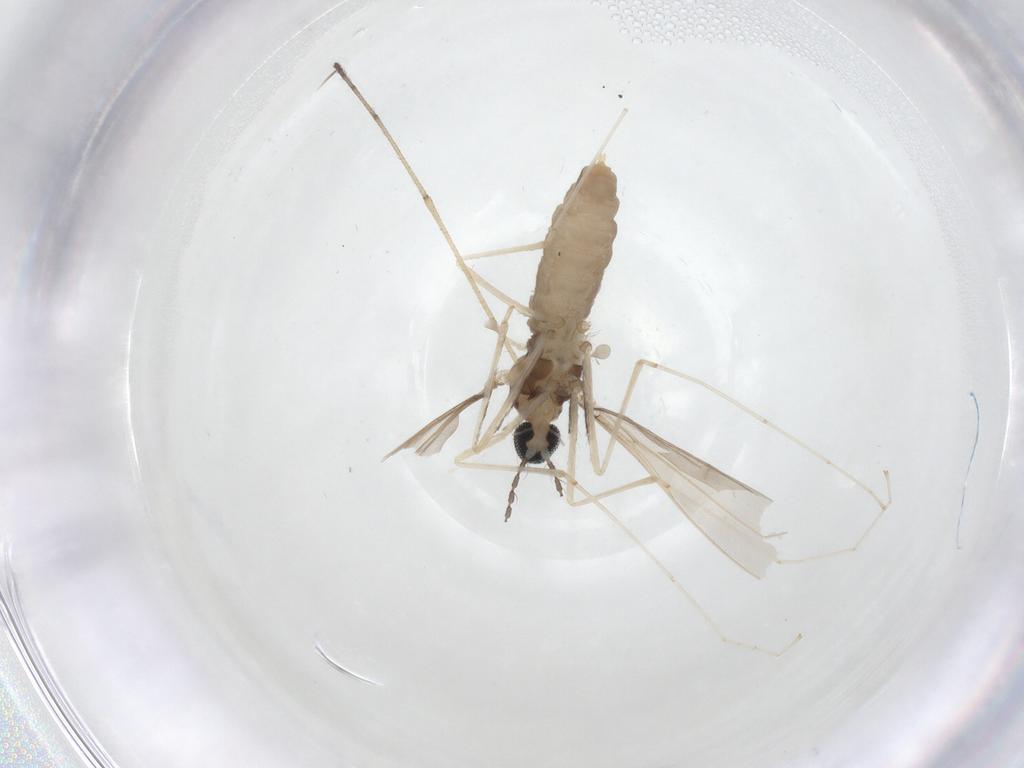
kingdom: Animalia
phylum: Arthropoda
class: Insecta
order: Diptera
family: Cecidomyiidae
